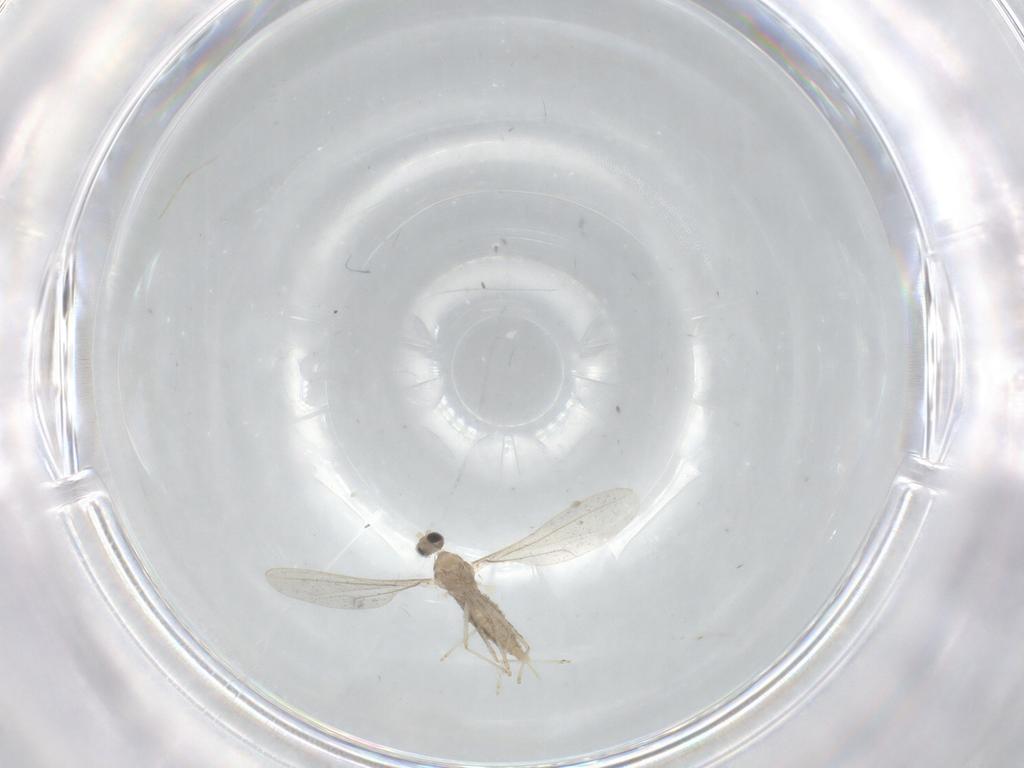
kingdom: Animalia
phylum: Arthropoda
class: Insecta
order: Diptera
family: Cecidomyiidae
